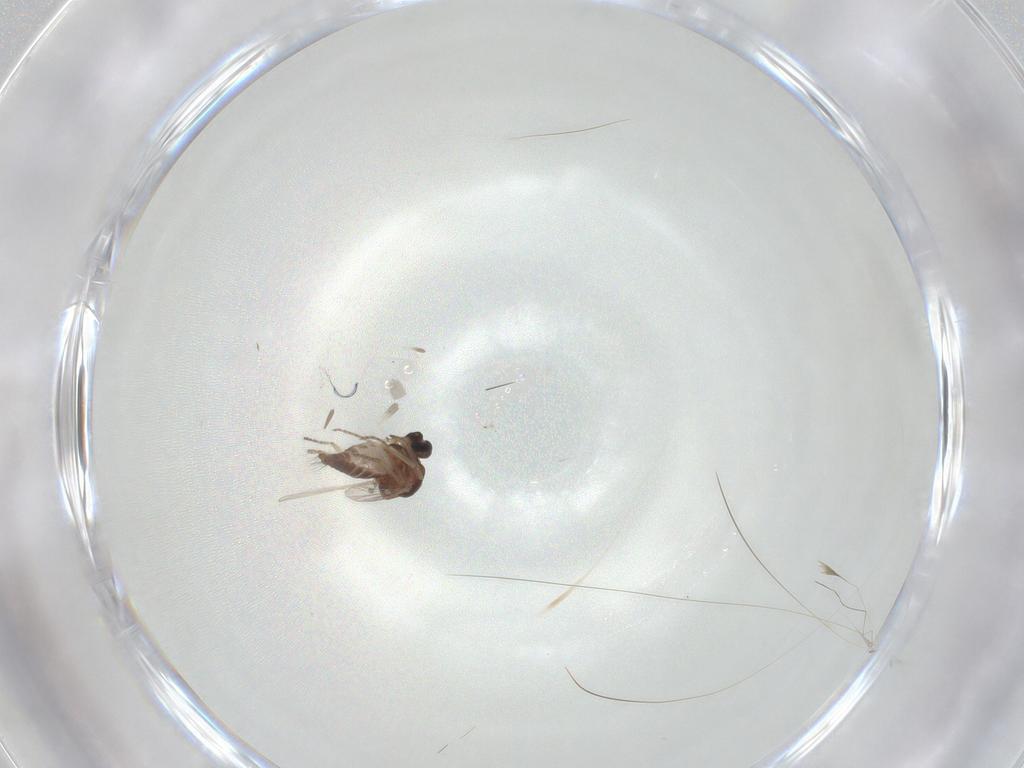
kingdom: Animalia
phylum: Arthropoda
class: Insecta
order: Diptera
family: Ceratopogonidae
